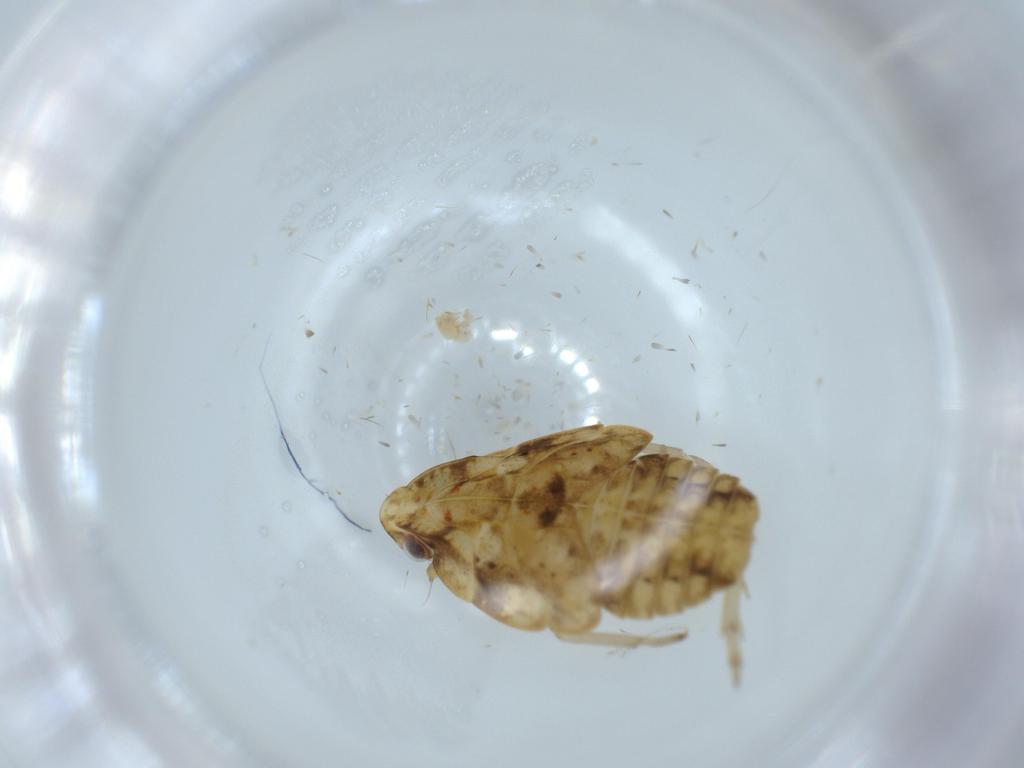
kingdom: Animalia
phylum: Arthropoda
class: Insecta
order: Hemiptera
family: Flatidae
